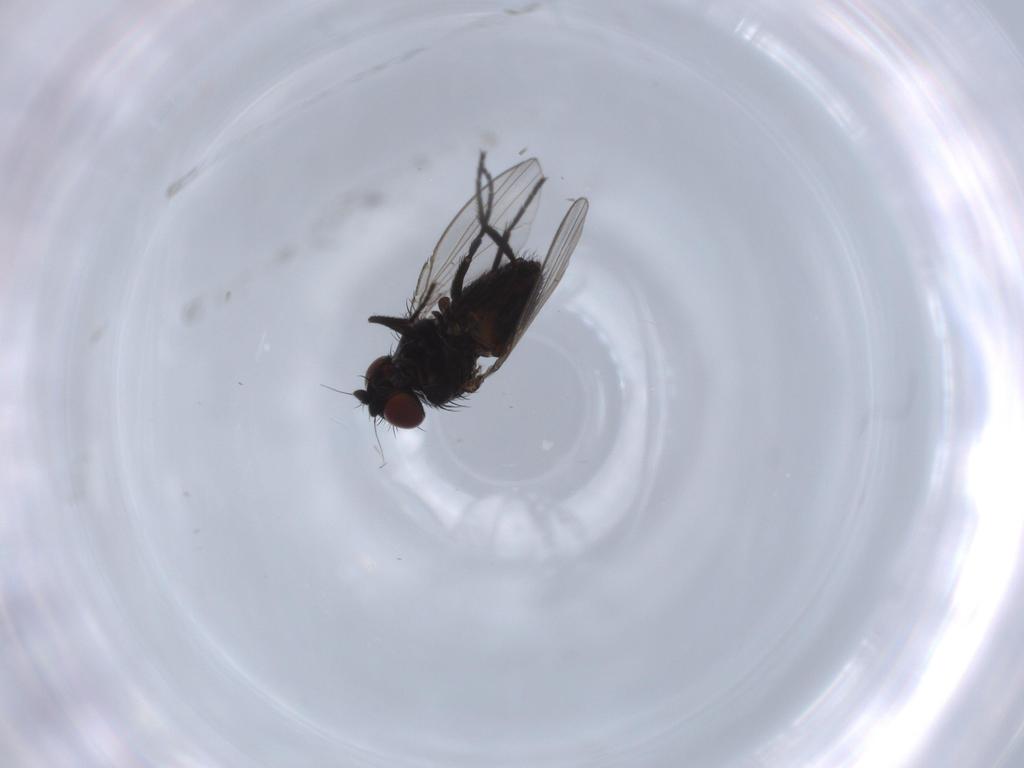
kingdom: Animalia
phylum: Arthropoda
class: Insecta
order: Diptera
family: Milichiidae
